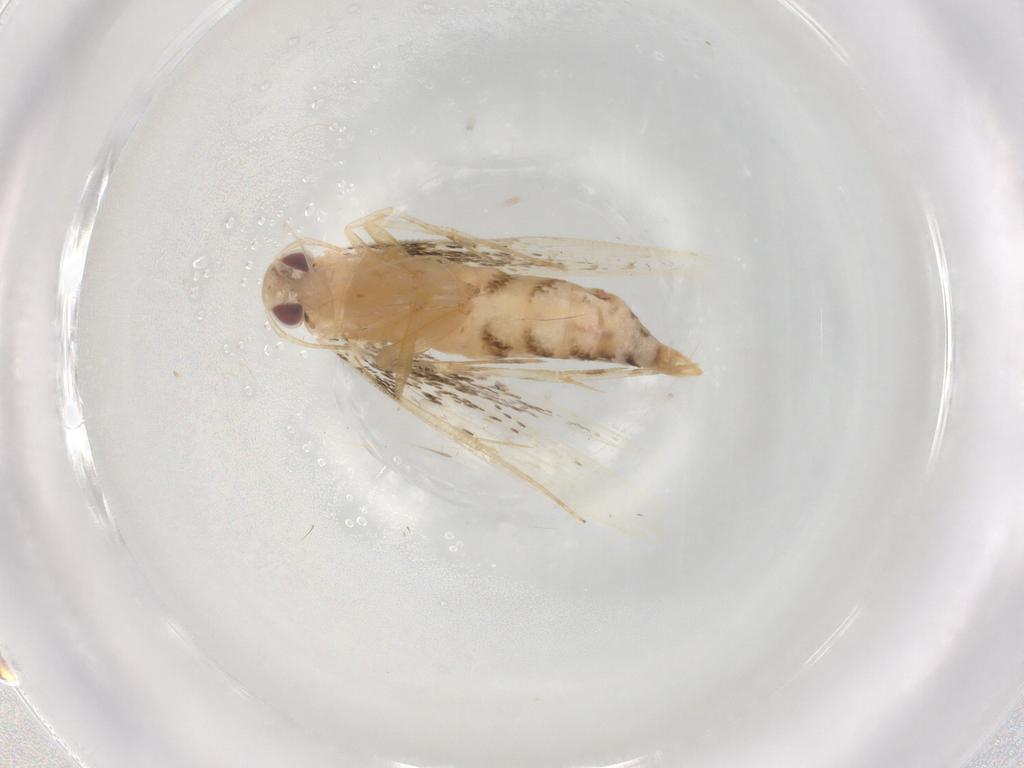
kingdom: Animalia
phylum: Arthropoda
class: Insecta
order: Lepidoptera
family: Cosmopterigidae
